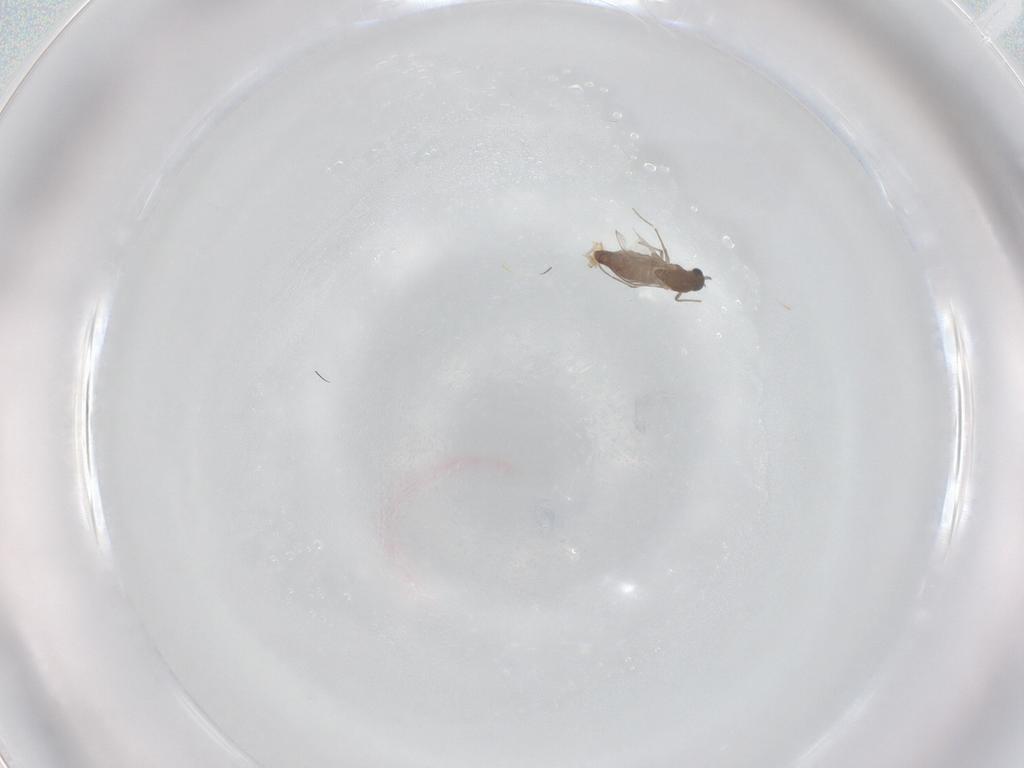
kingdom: Animalia
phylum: Arthropoda
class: Insecta
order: Diptera
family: Chironomidae
